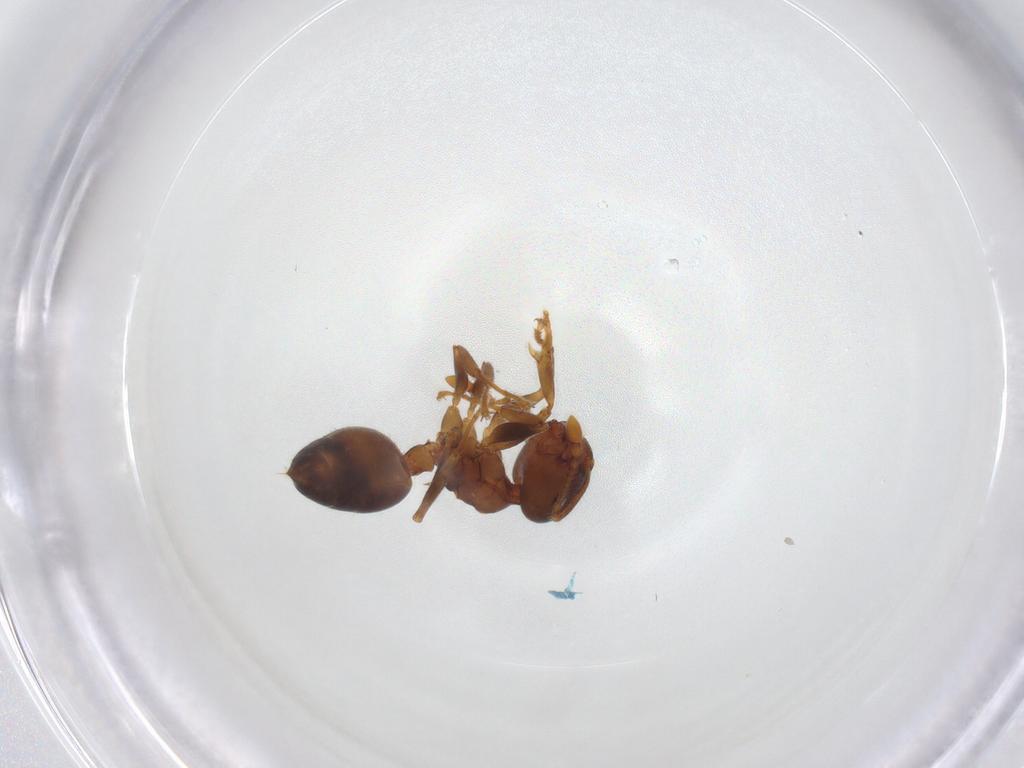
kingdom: Animalia
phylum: Arthropoda
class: Insecta
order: Hymenoptera
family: Formicidae
